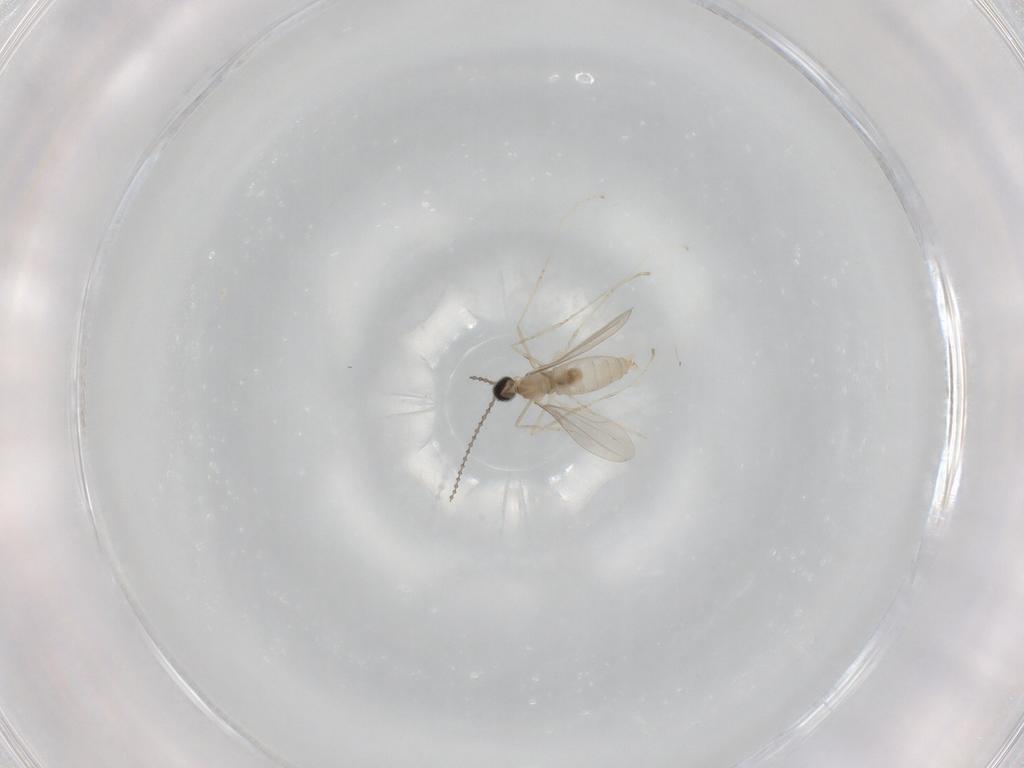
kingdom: Animalia
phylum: Arthropoda
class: Insecta
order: Diptera
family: Cecidomyiidae
